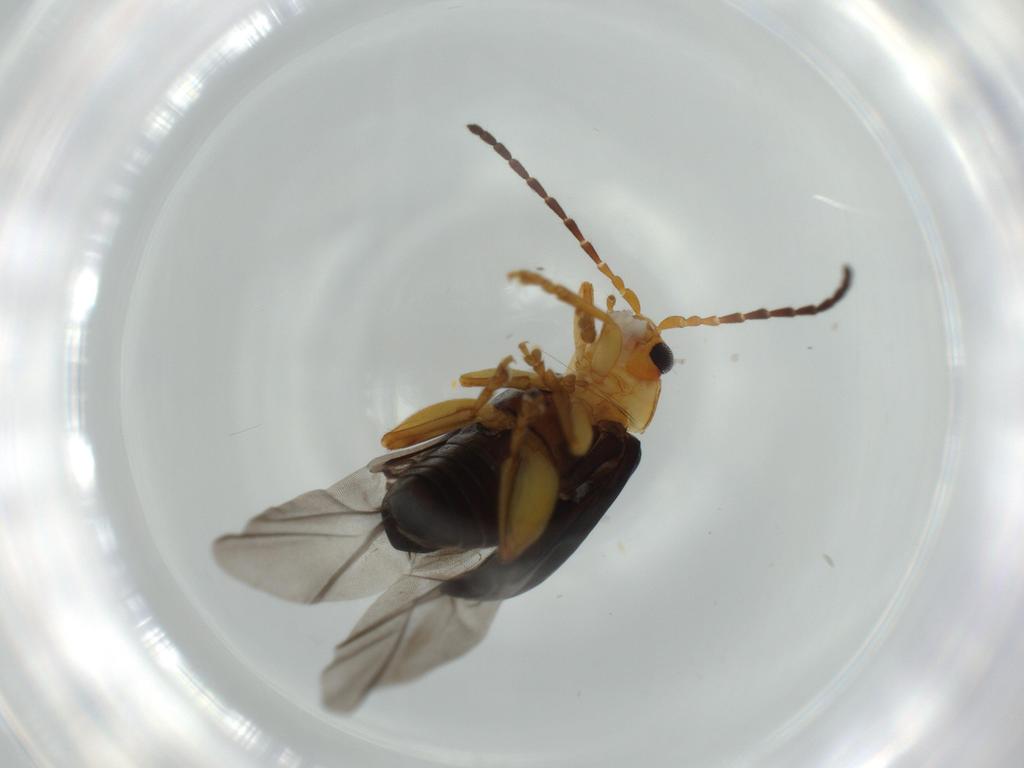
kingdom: Animalia
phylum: Arthropoda
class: Insecta
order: Coleoptera
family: Chrysomelidae
